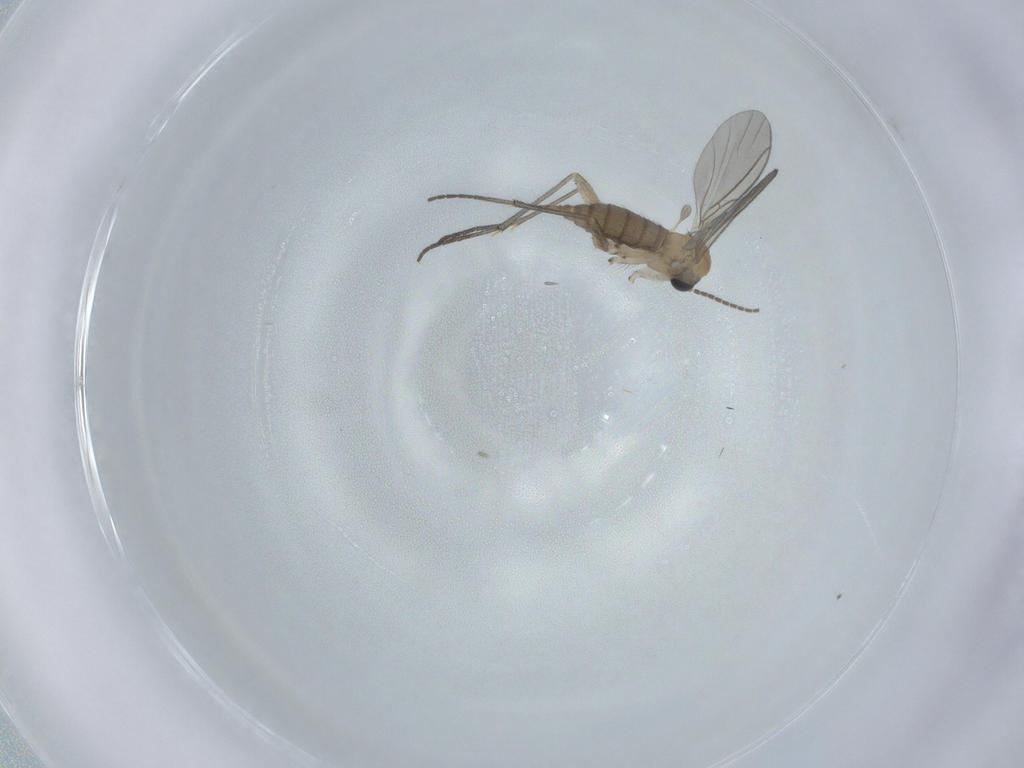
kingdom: Animalia
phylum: Arthropoda
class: Insecta
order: Diptera
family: Sciaridae
